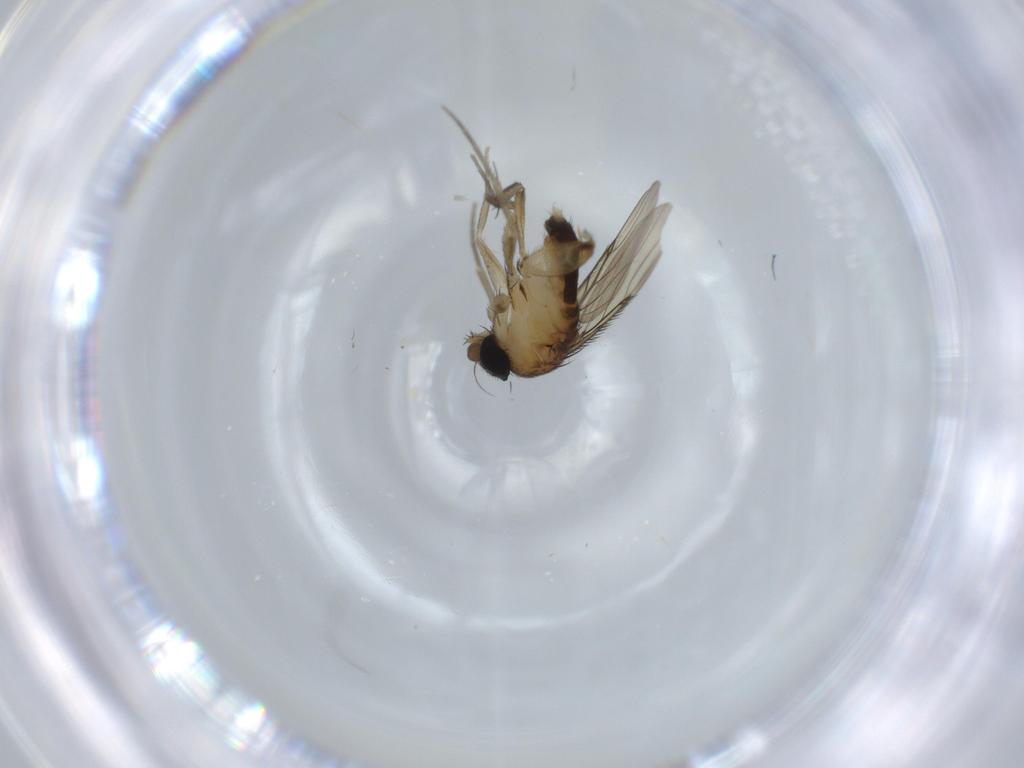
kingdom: Animalia
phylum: Arthropoda
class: Insecta
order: Diptera
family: Phoridae
